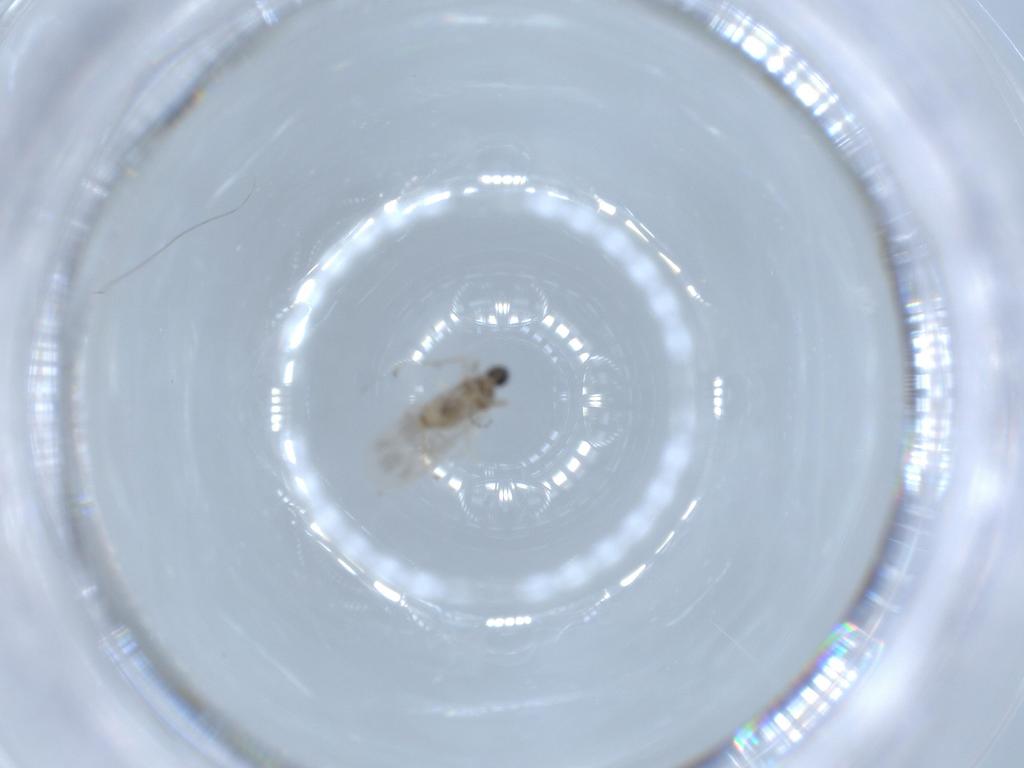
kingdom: Animalia
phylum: Arthropoda
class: Insecta
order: Diptera
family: Cecidomyiidae
